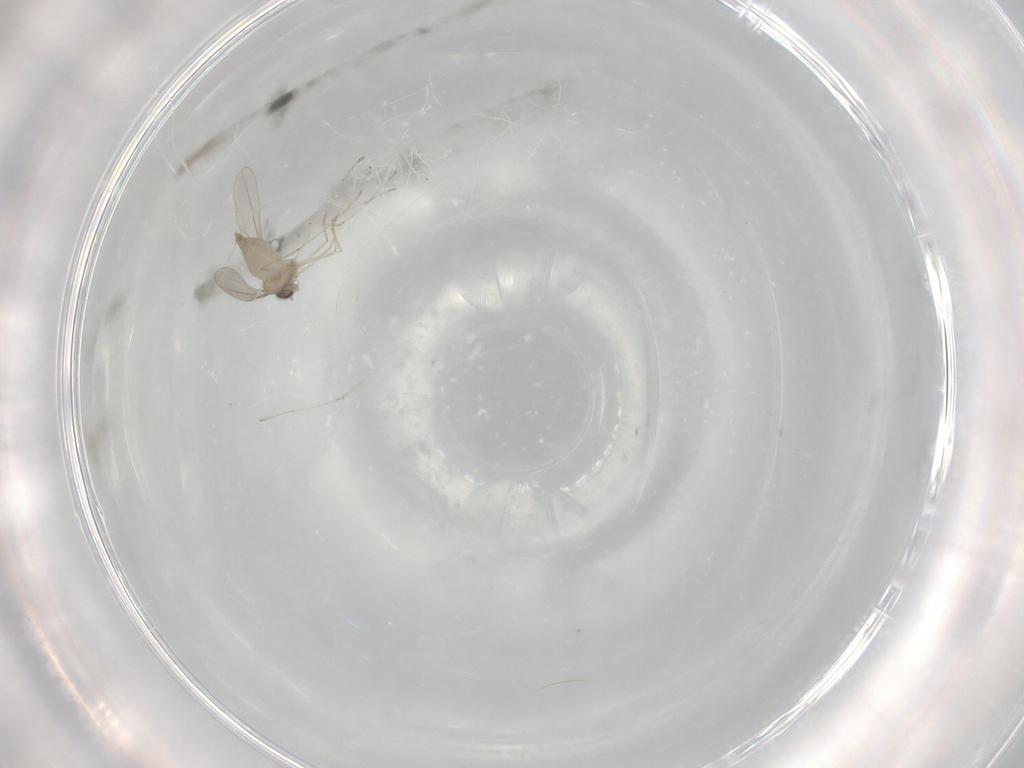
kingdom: Animalia
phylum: Arthropoda
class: Insecta
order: Diptera
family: Cecidomyiidae
